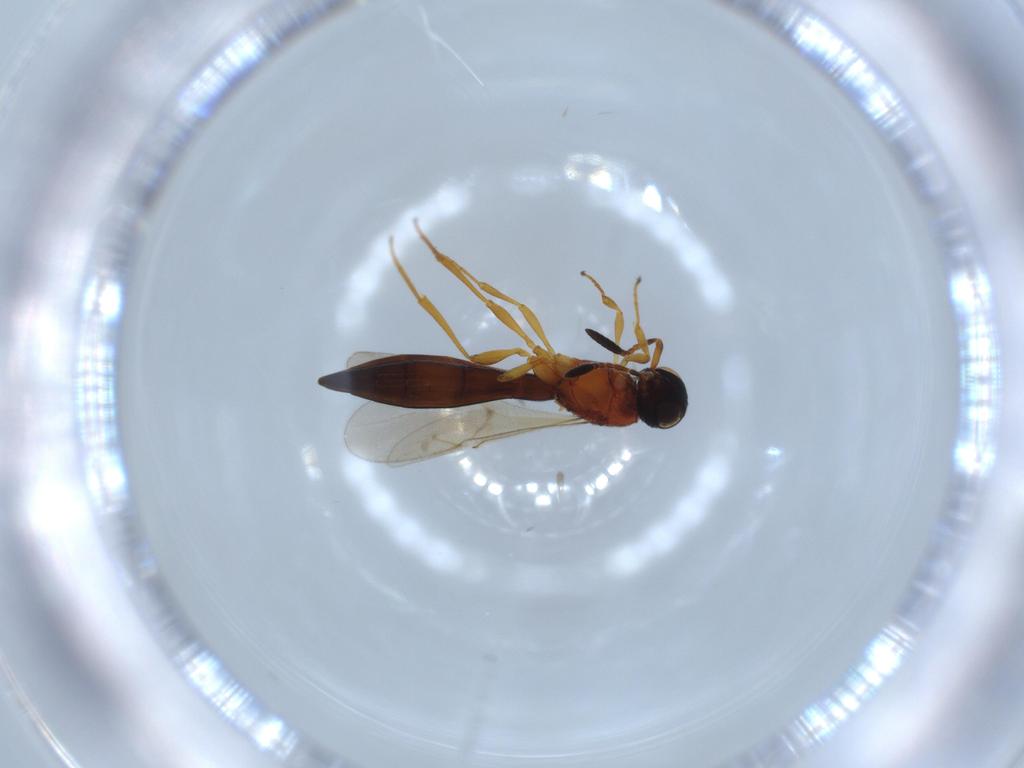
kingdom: Animalia
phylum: Arthropoda
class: Insecta
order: Hymenoptera
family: Scelionidae
